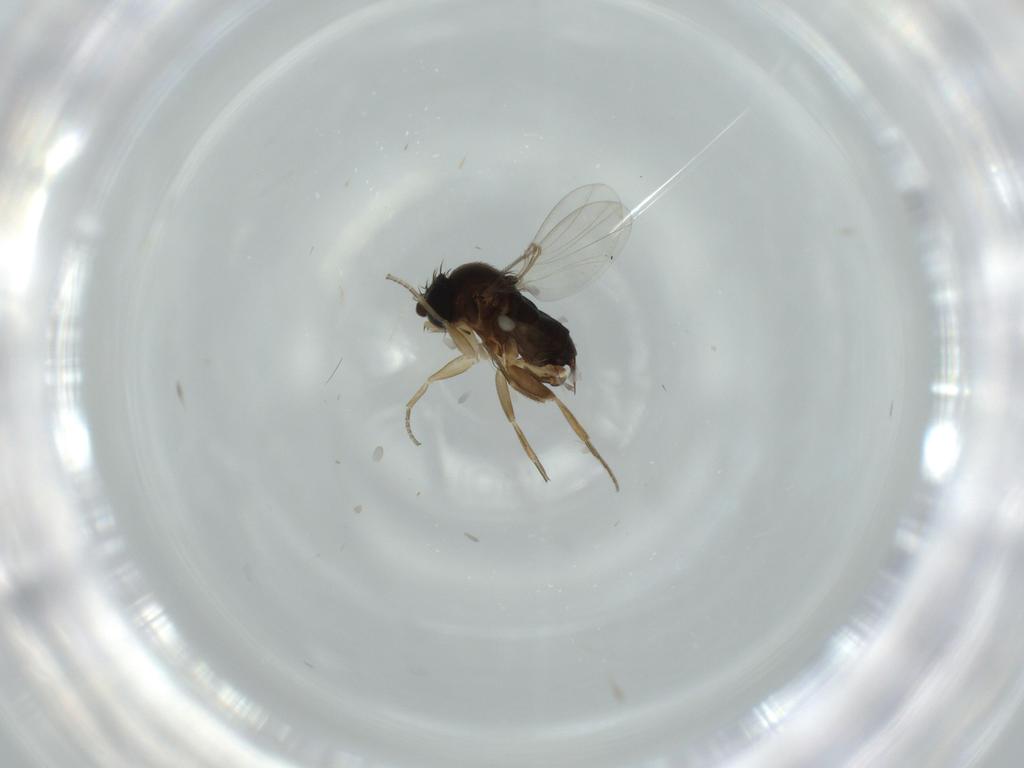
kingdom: Animalia
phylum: Arthropoda
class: Insecta
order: Diptera
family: Cecidomyiidae
